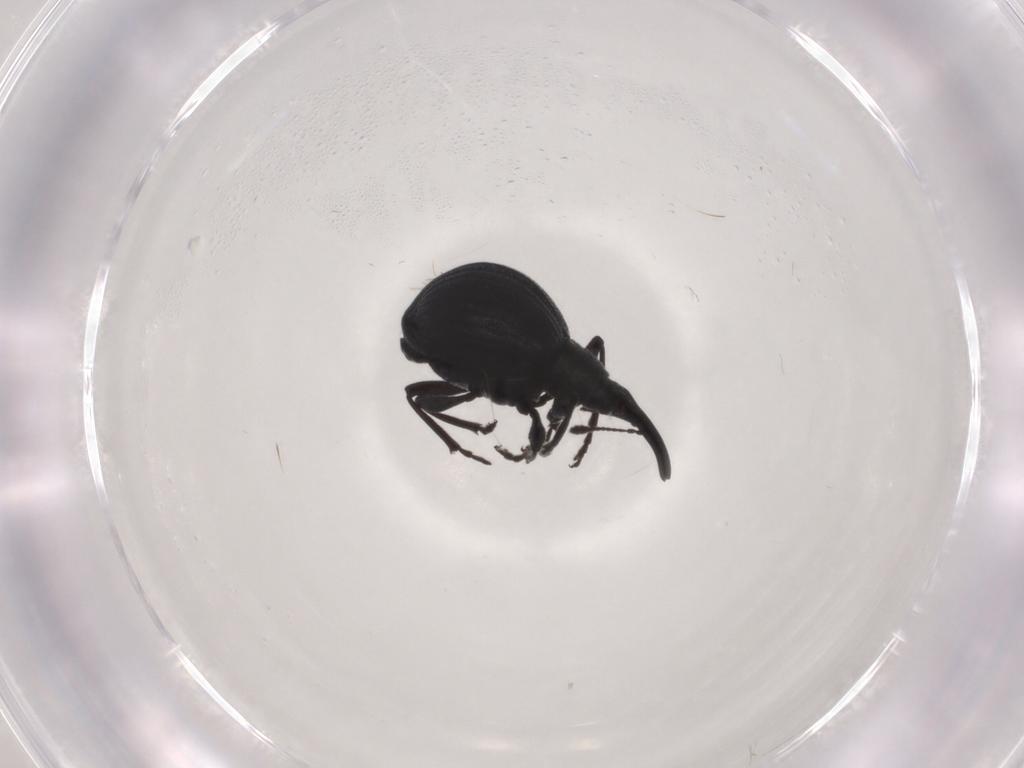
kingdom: Animalia
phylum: Arthropoda
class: Insecta
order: Coleoptera
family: Brentidae
